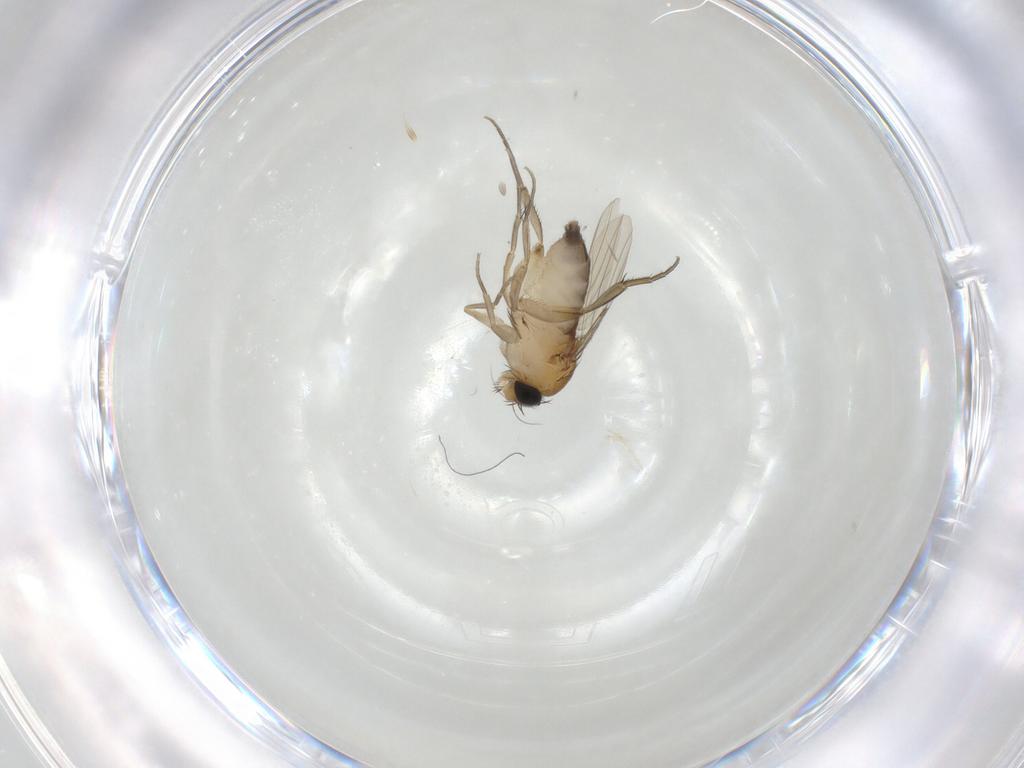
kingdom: Animalia
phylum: Arthropoda
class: Insecta
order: Diptera
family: Phoridae
